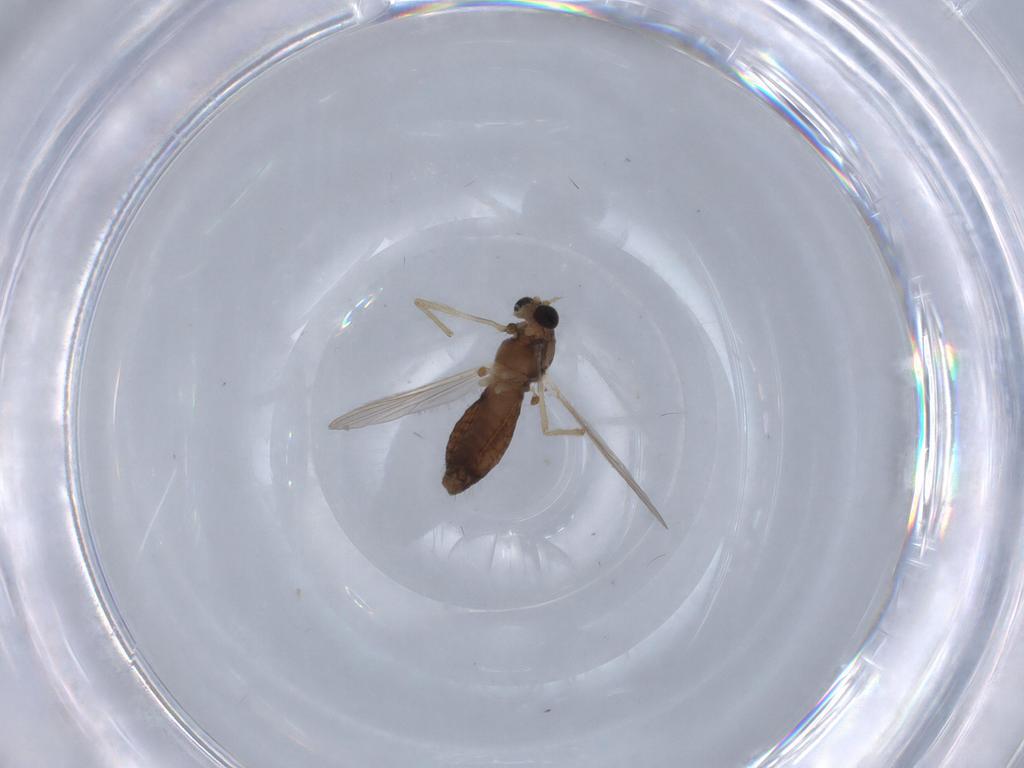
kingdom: Animalia
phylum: Arthropoda
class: Insecta
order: Diptera
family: Chironomidae
